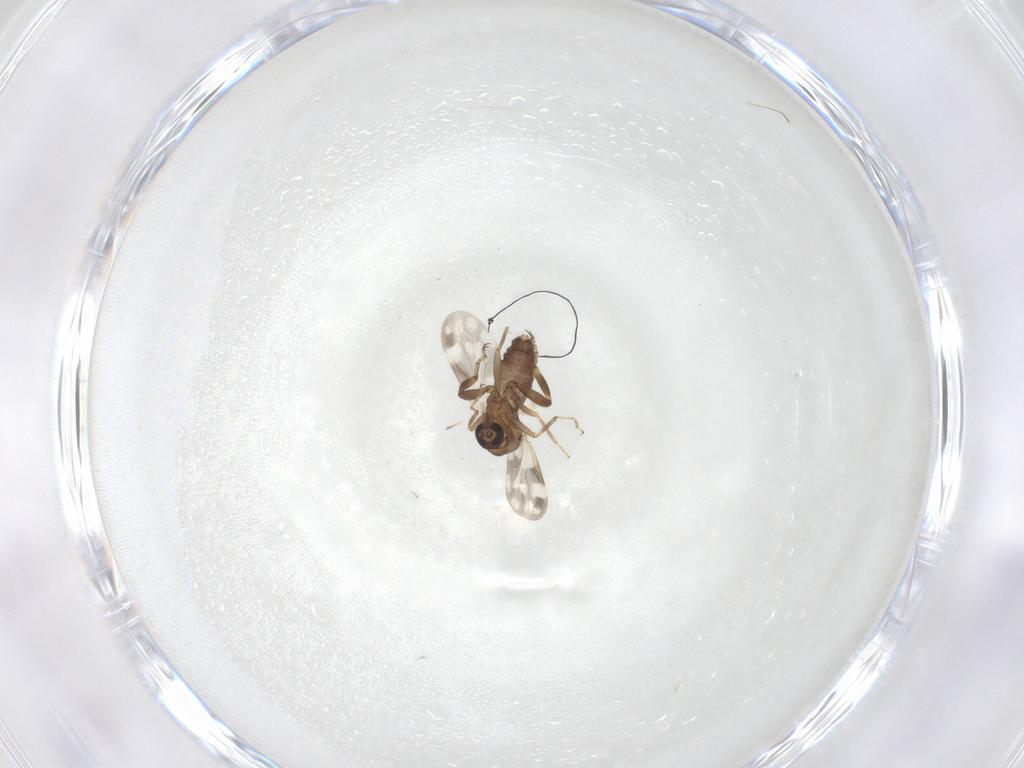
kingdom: Animalia
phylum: Arthropoda
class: Insecta
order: Diptera
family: Ceratopogonidae
